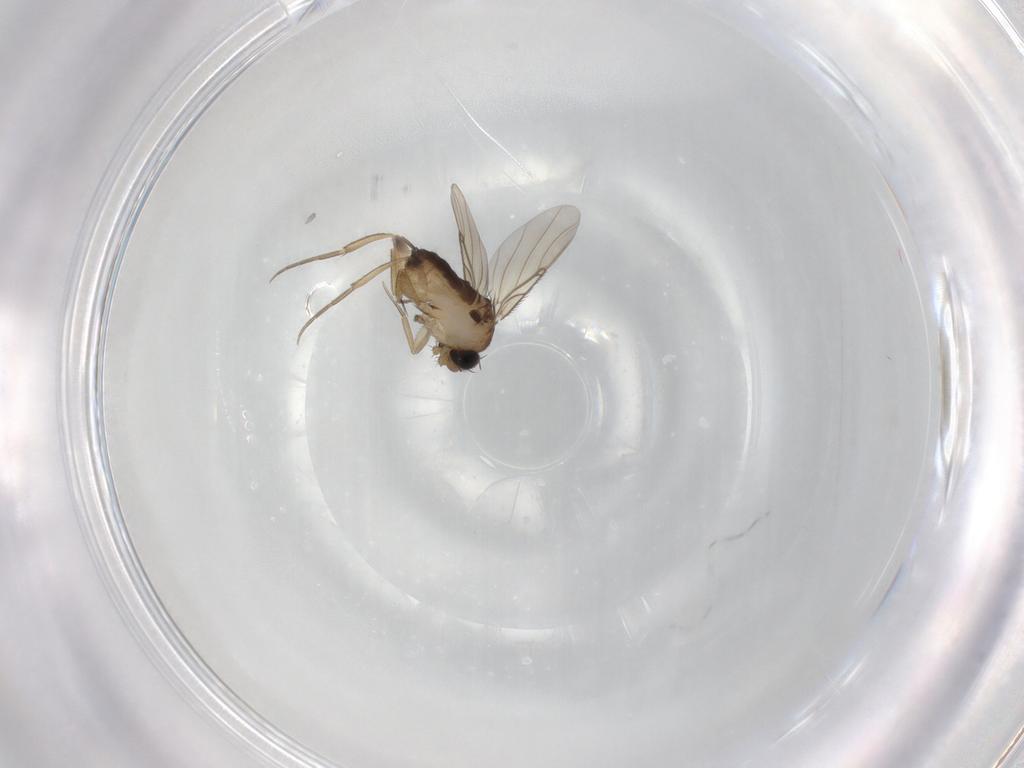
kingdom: Animalia
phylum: Arthropoda
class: Insecta
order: Diptera
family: Phoridae
